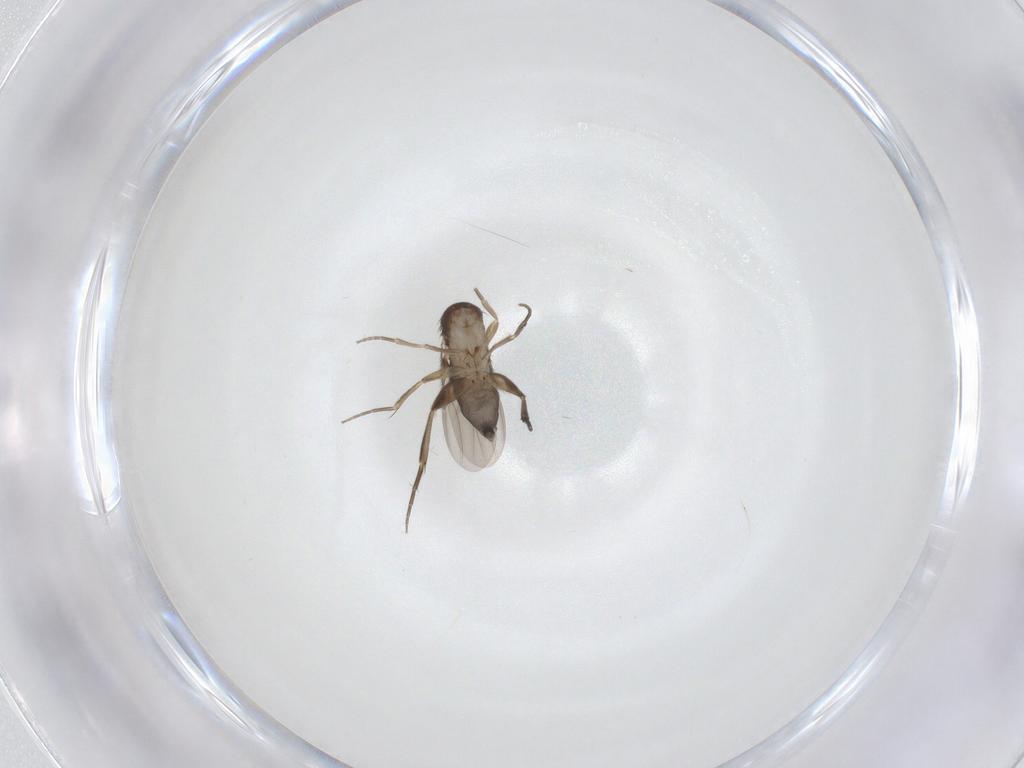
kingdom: Animalia
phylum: Arthropoda
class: Insecta
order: Diptera
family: Phoridae
